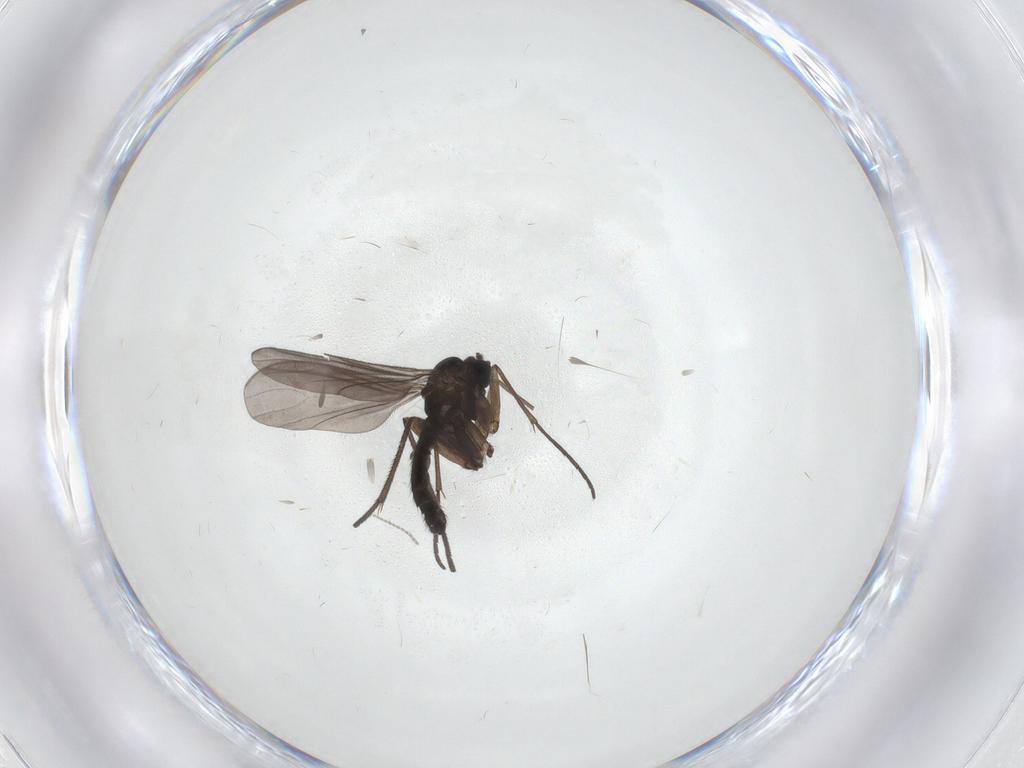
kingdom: Animalia
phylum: Arthropoda
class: Insecta
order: Diptera
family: Sciaridae
